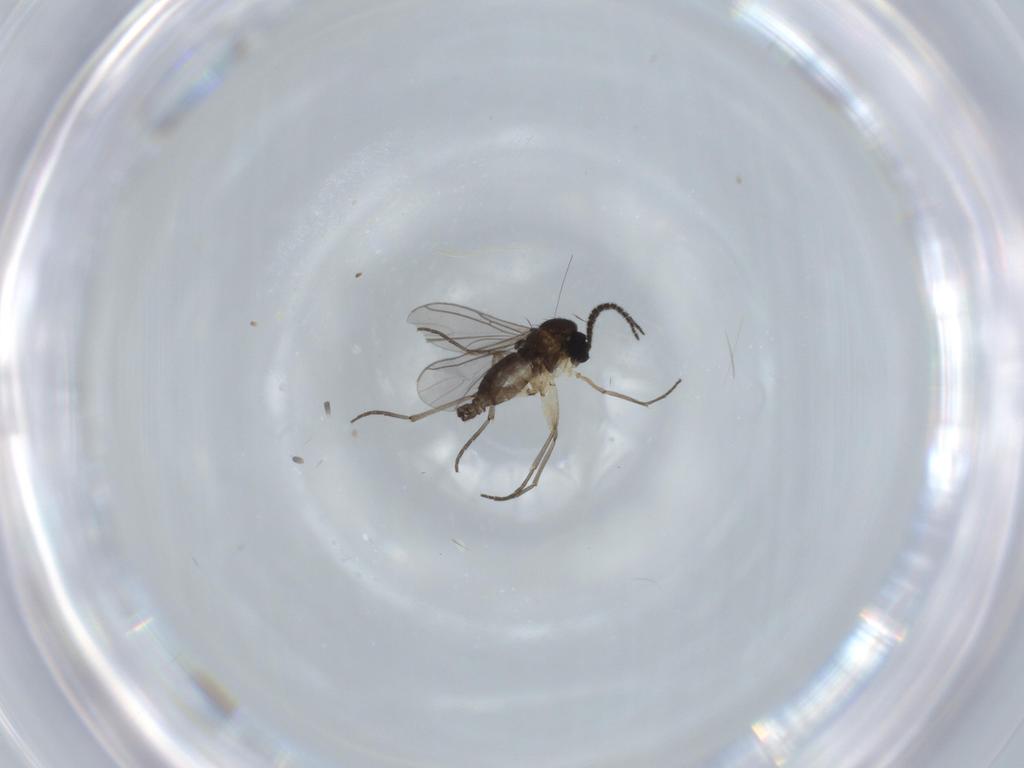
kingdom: Animalia
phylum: Arthropoda
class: Insecta
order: Diptera
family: Sciaridae
